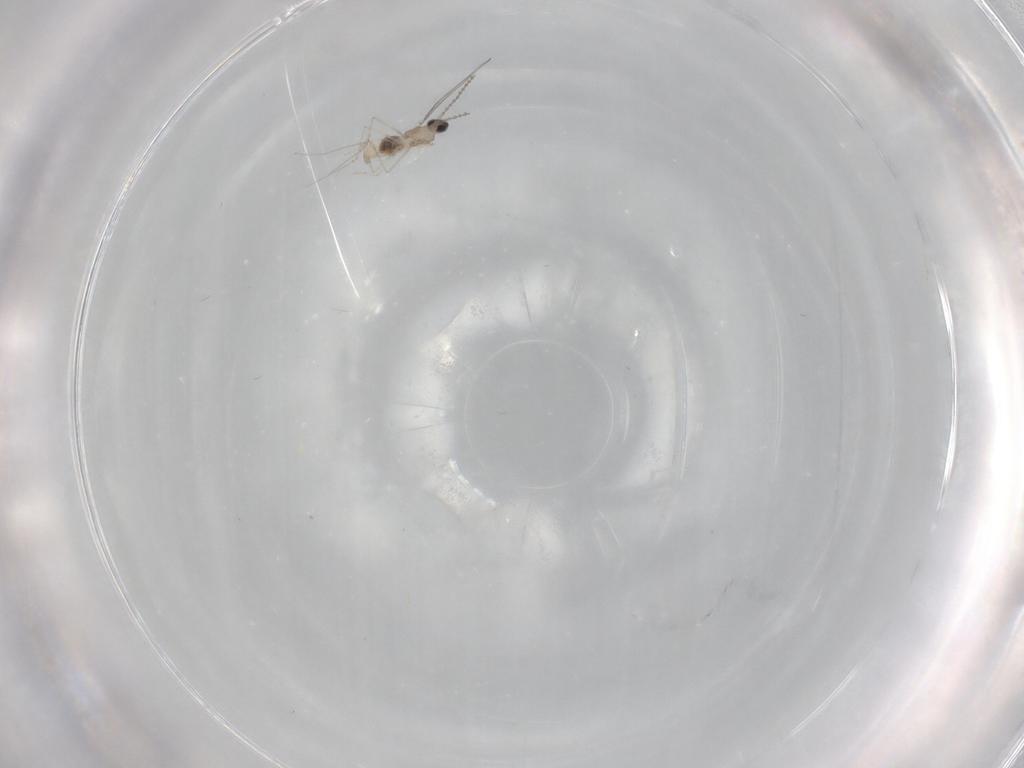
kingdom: Animalia
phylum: Arthropoda
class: Insecta
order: Diptera
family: Cecidomyiidae
